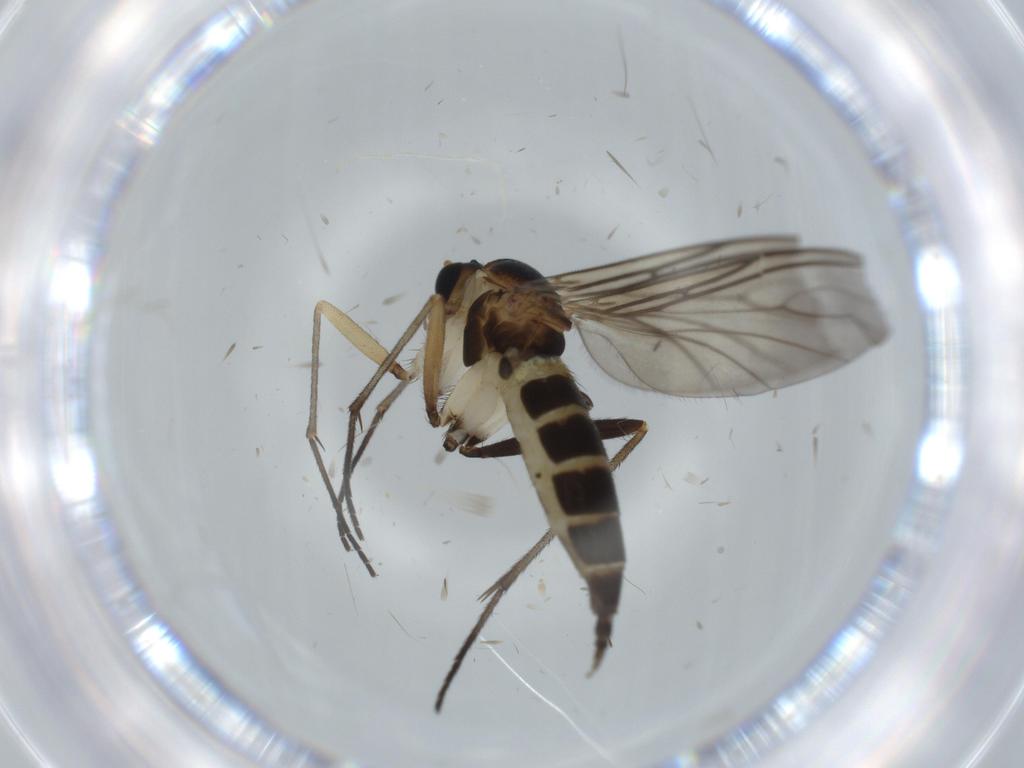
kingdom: Animalia
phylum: Arthropoda
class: Insecta
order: Diptera
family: Sciaridae
